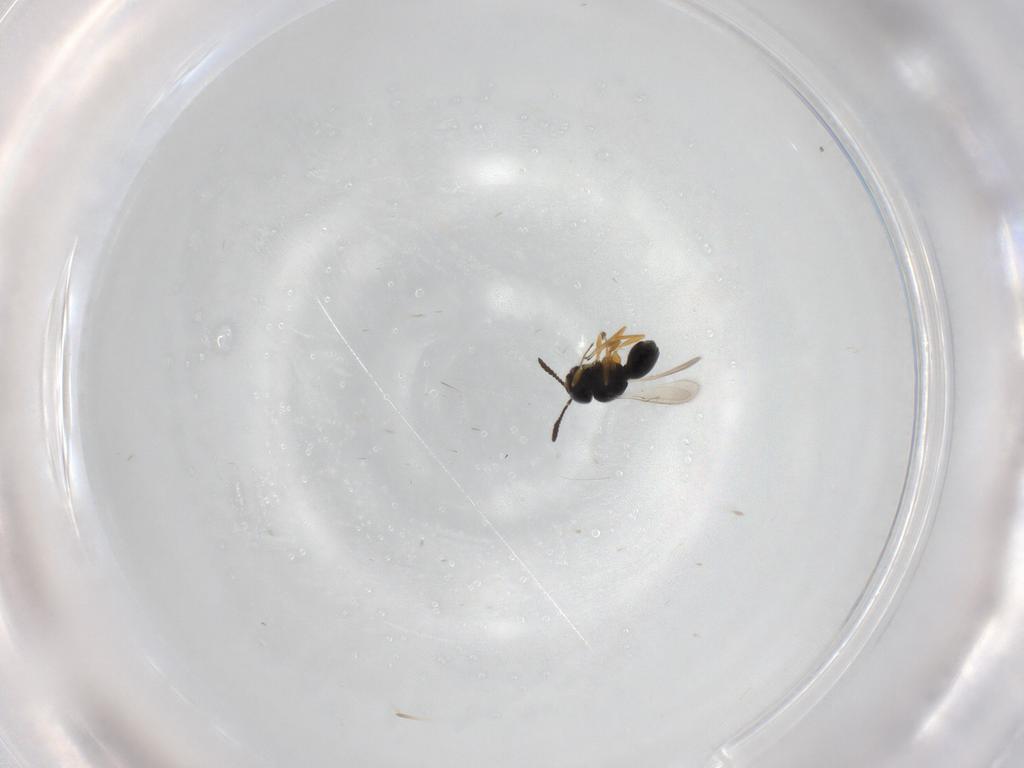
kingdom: Animalia
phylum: Arthropoda
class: Insecta
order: Hymenoptera
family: Scelionidae
